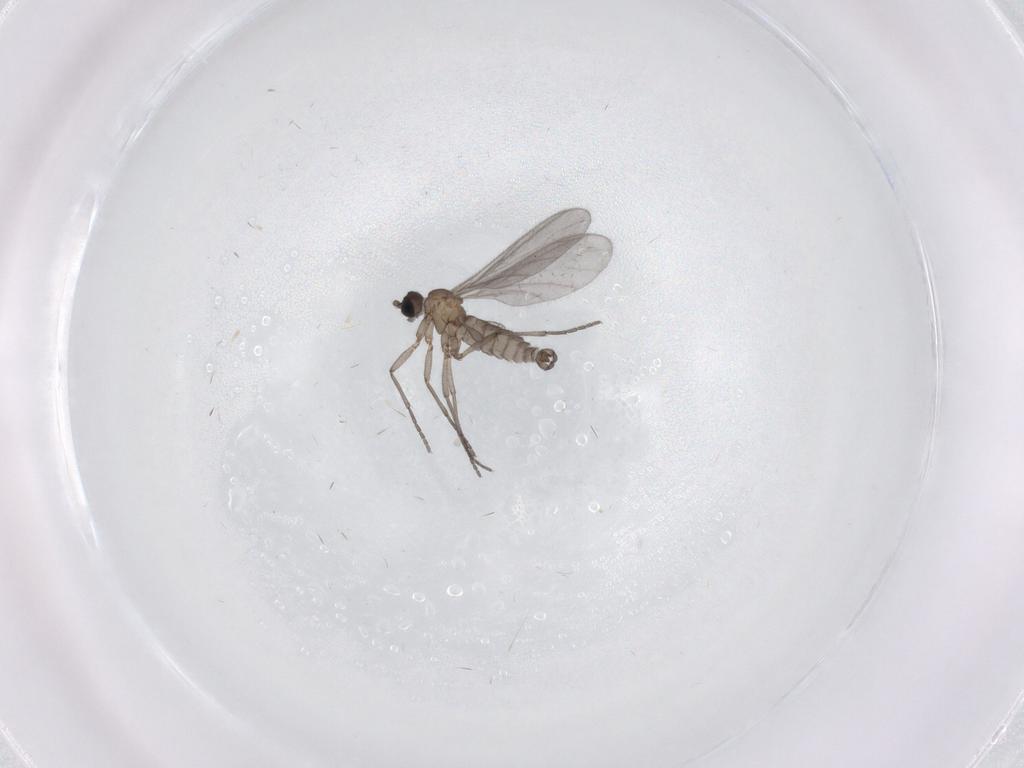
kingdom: Animalia
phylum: Arthropoda
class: Insecta
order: Diptera
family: Sciaridae
